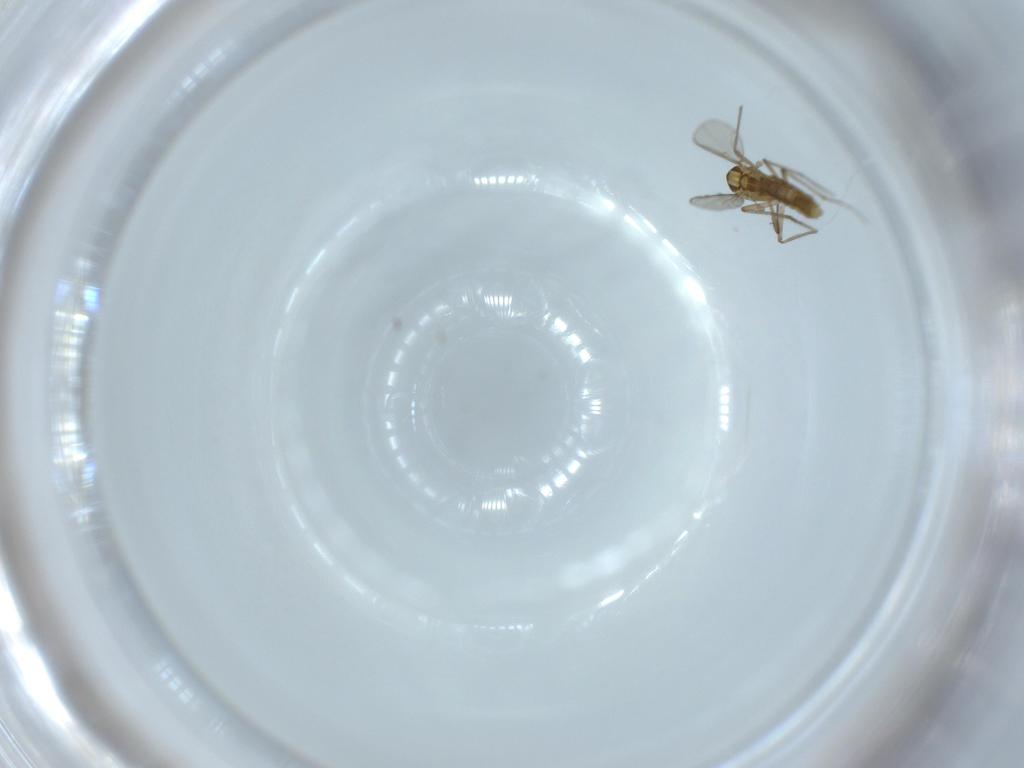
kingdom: Animalia
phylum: Arthropoda
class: Insecta
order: Diptera
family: Chironomidae
